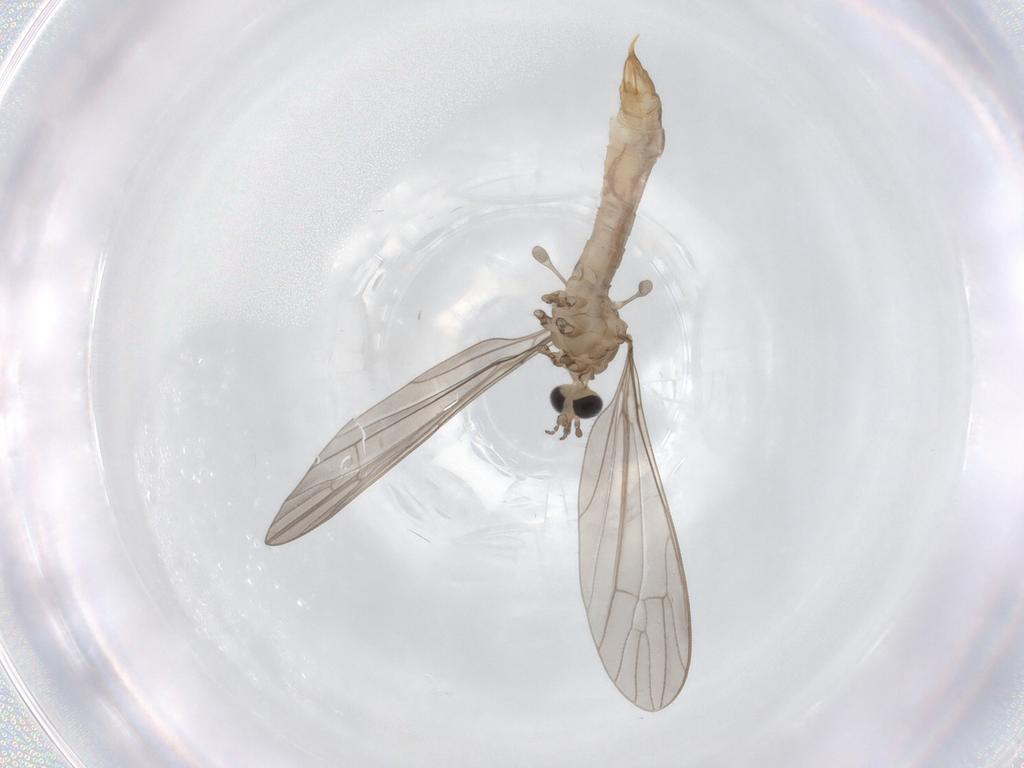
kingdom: Animalia
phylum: Arthropoda
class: Insecta
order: Diptera
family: Limoniidae
